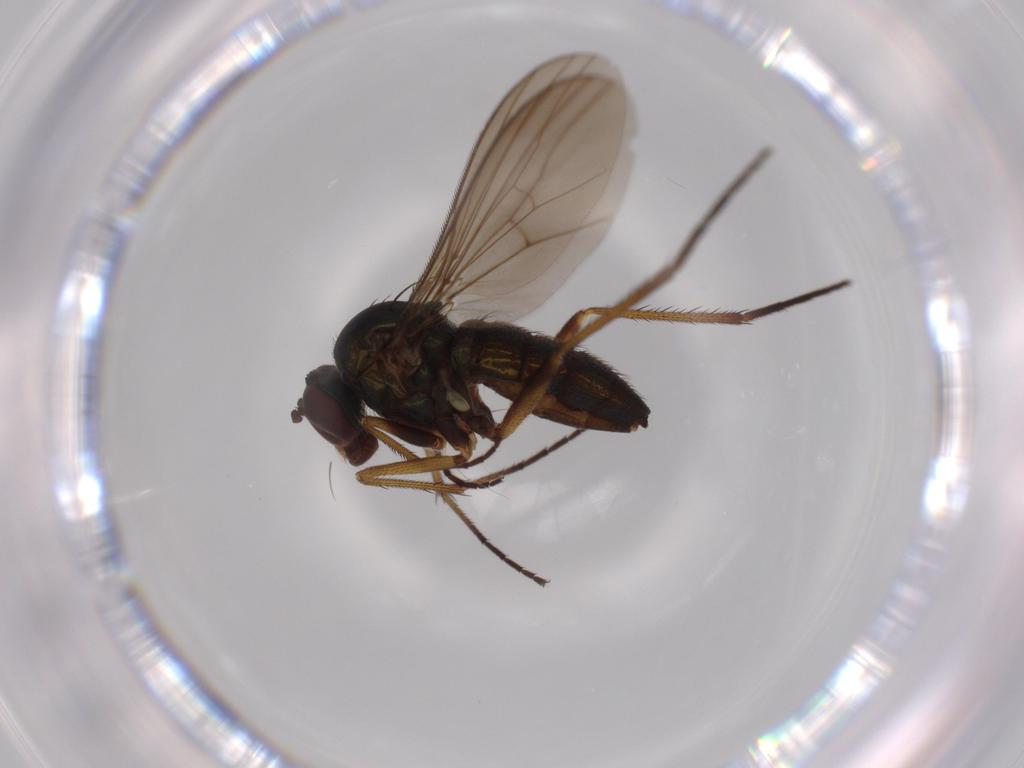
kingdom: Animalia
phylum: Arthropoda
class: Insecta
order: Diptera
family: Dolichopodidae
